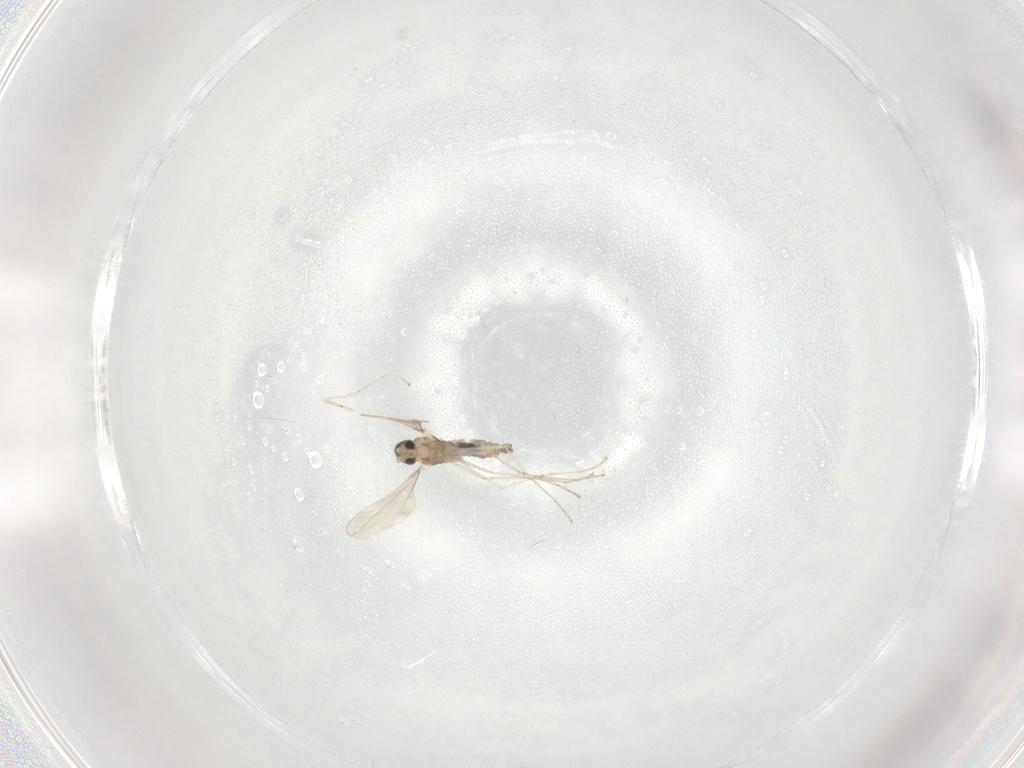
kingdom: Animalia
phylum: Arthropoda
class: Insecta
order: Diptera
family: Cecidomyiidae
